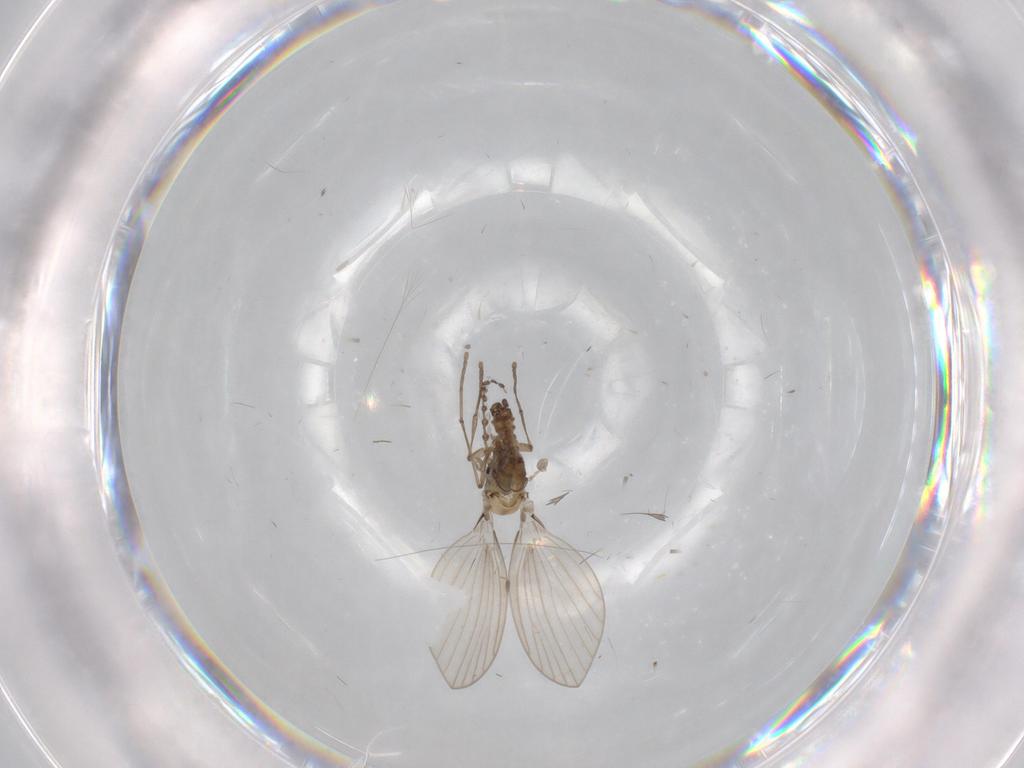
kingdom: Animalia
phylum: Arthropoda
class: Insecta
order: Diptera
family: Psychodidae
